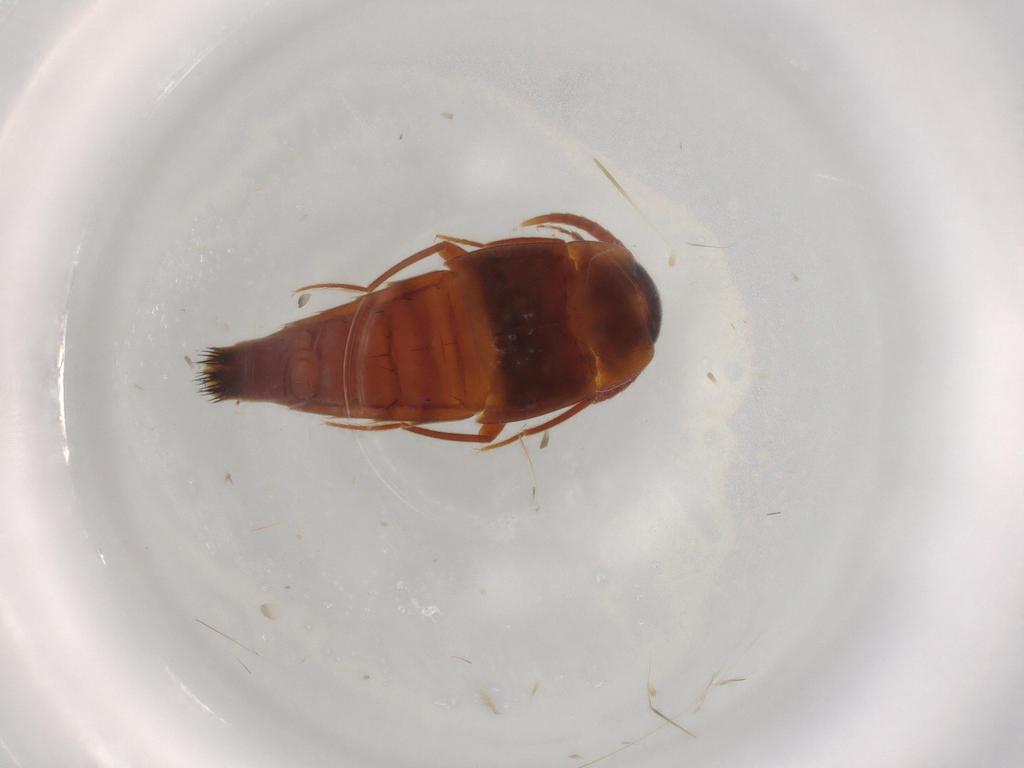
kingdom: Animalia
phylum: Arthropoda
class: Insecta
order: Coleoptera
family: Staphylinidae
